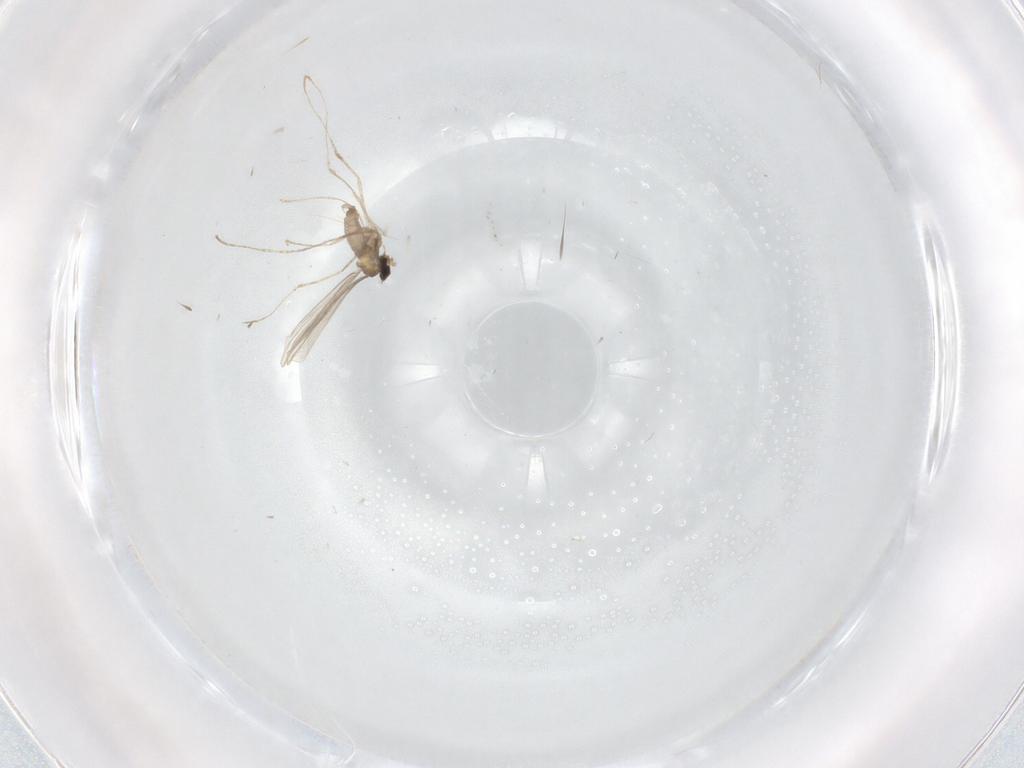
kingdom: Animalia
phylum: Arthropoda
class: Insecta
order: Diptera
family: Cecidomyiidae
